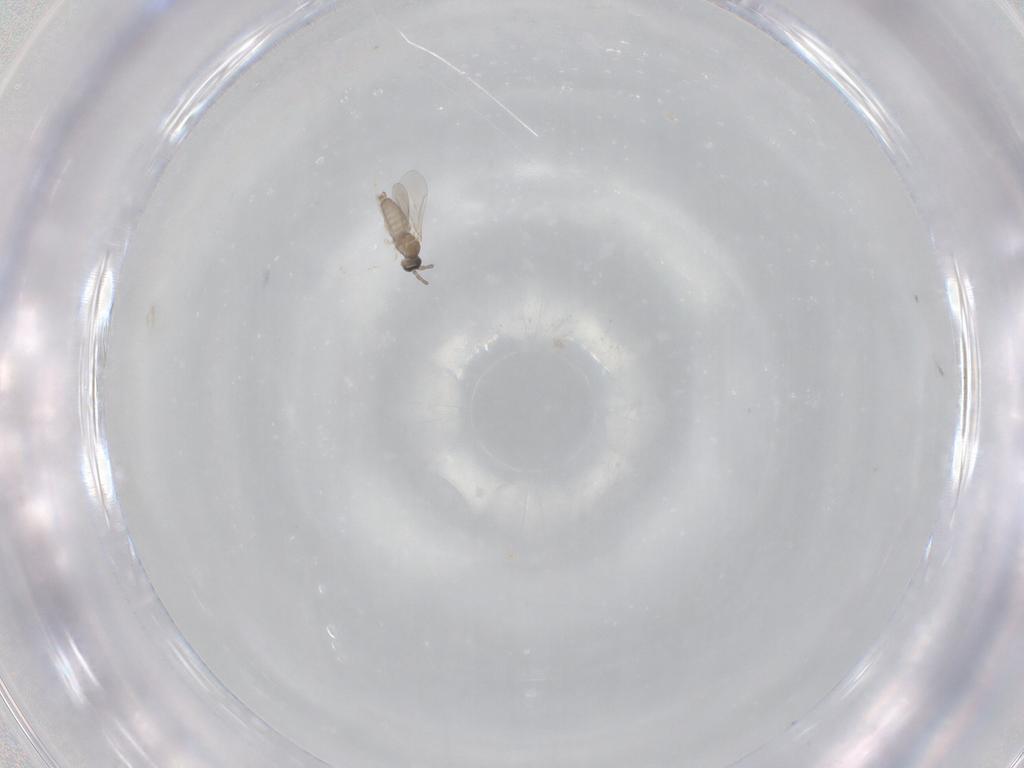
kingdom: Animalia
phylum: Arthropoda
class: Insecta
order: Diptera
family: Cecidomyiidae
